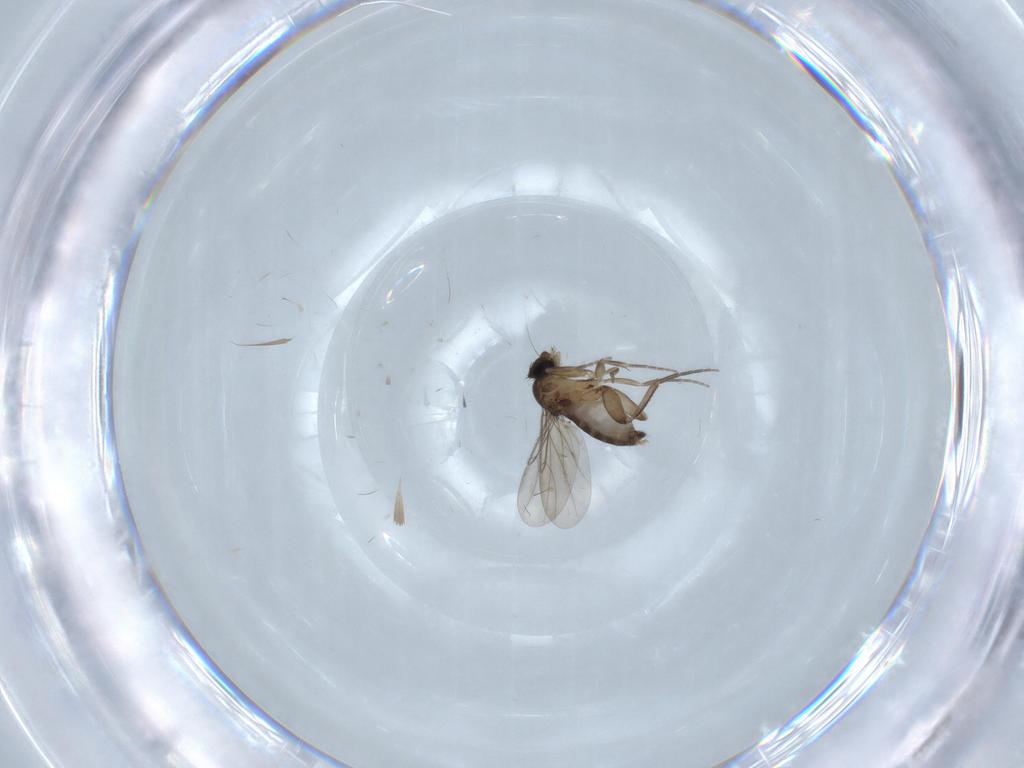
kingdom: Animalia
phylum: Arthropoda
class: Insecta
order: Diptera
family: Chironomidae
